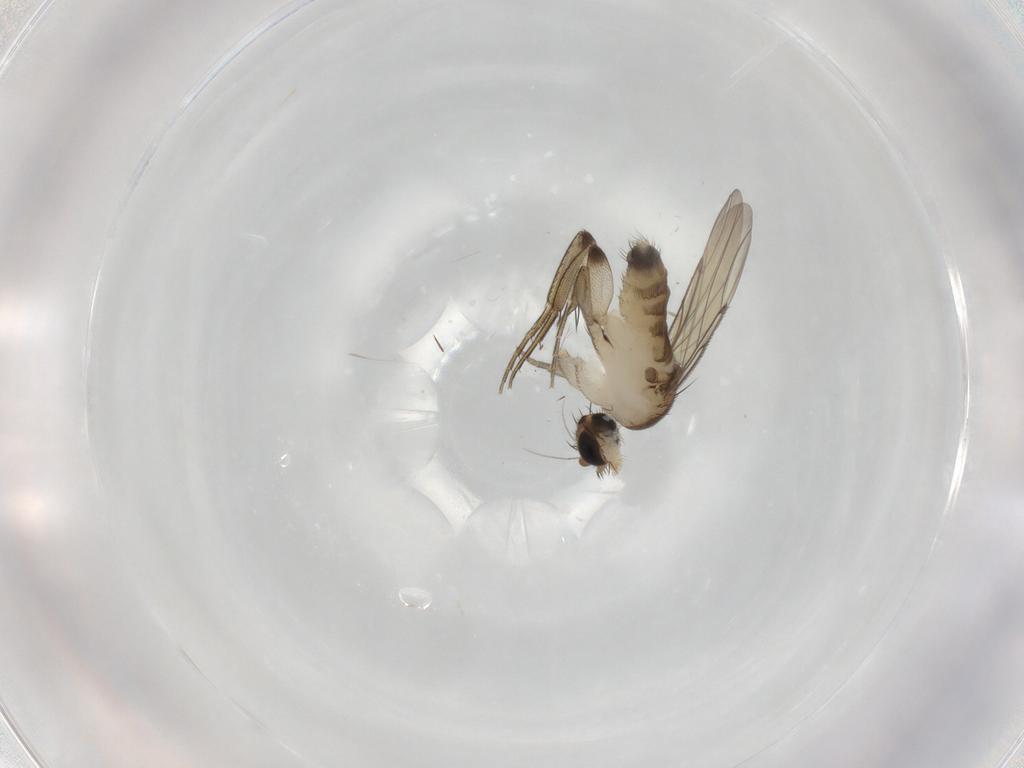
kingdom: Animalia
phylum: Arthropoda
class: Insecta
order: Diptera
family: Phoridae
